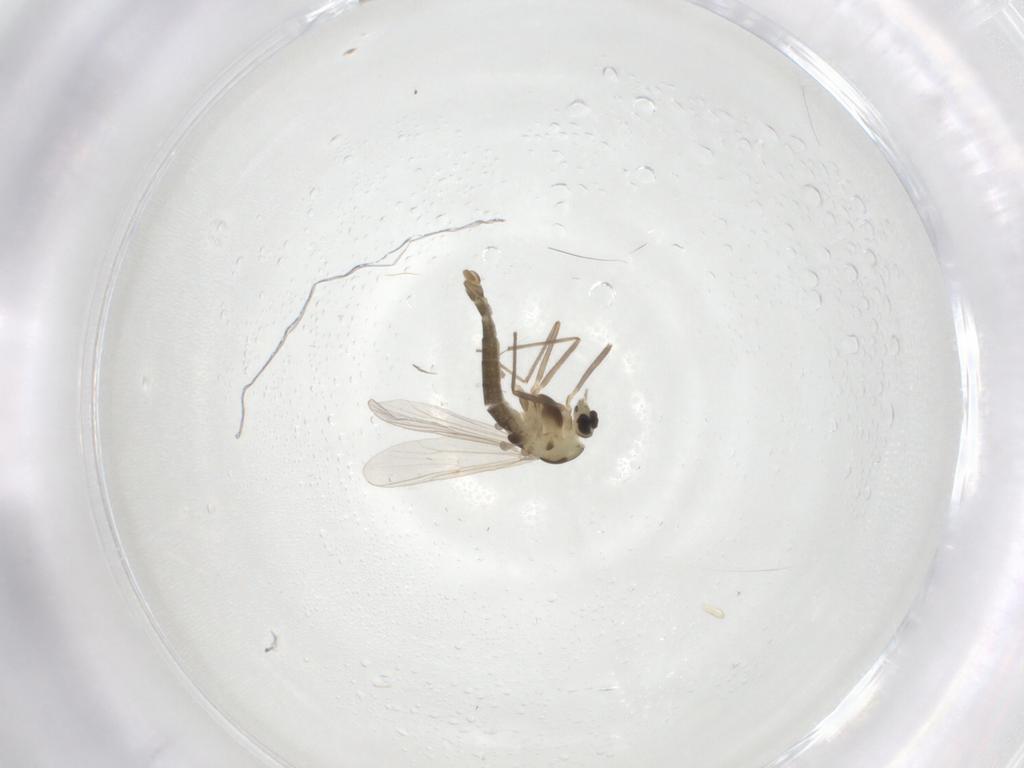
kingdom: Animalia
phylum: Arthropoda
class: Insecta
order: Diptera
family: Chironomidae
